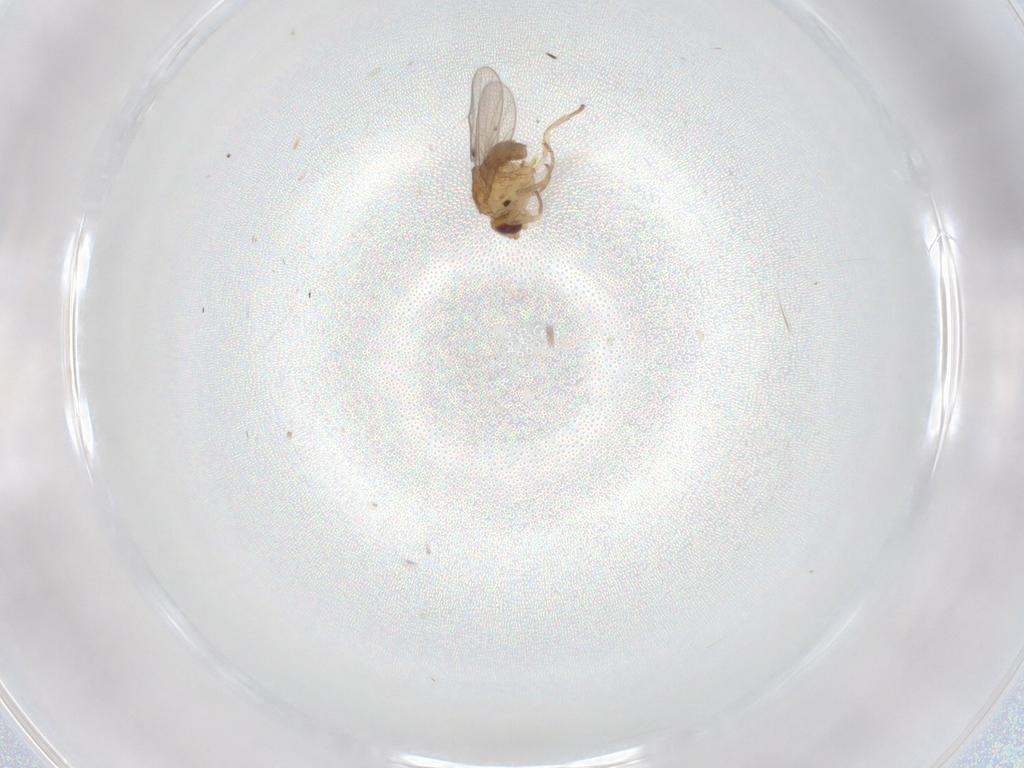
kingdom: Animalia
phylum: Arthropoda
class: Insecta
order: Diptera
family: Chloropidae
